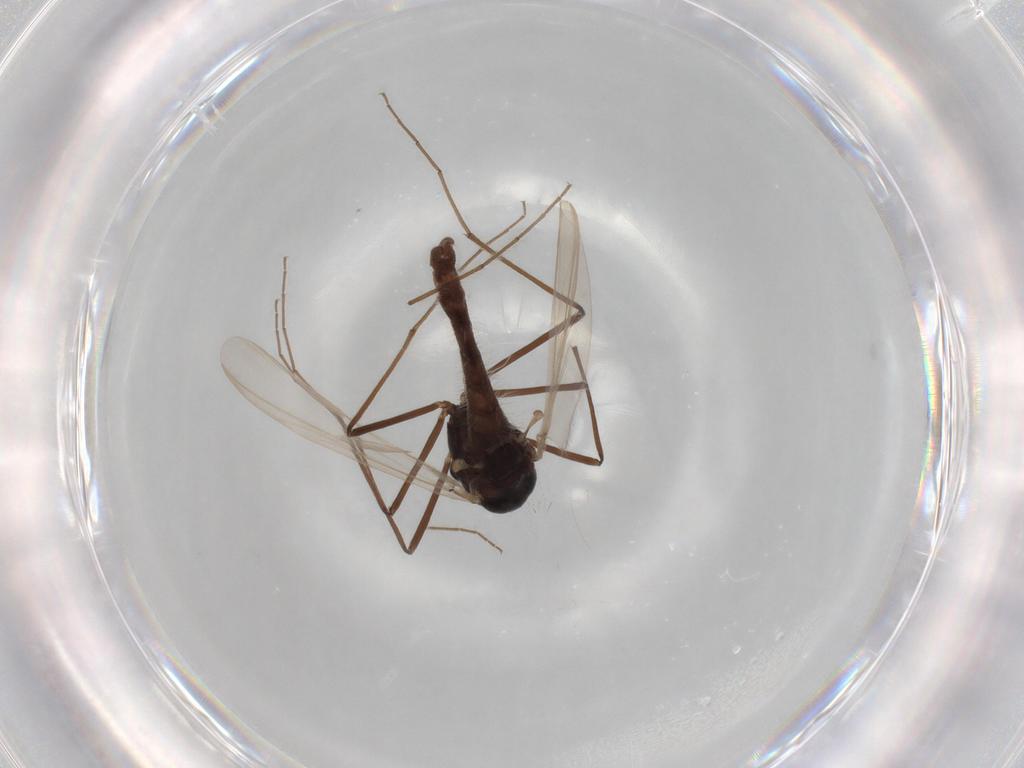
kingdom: Animalia
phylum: Arthropoda
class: Insecta
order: Diptera
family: Sciaridae
